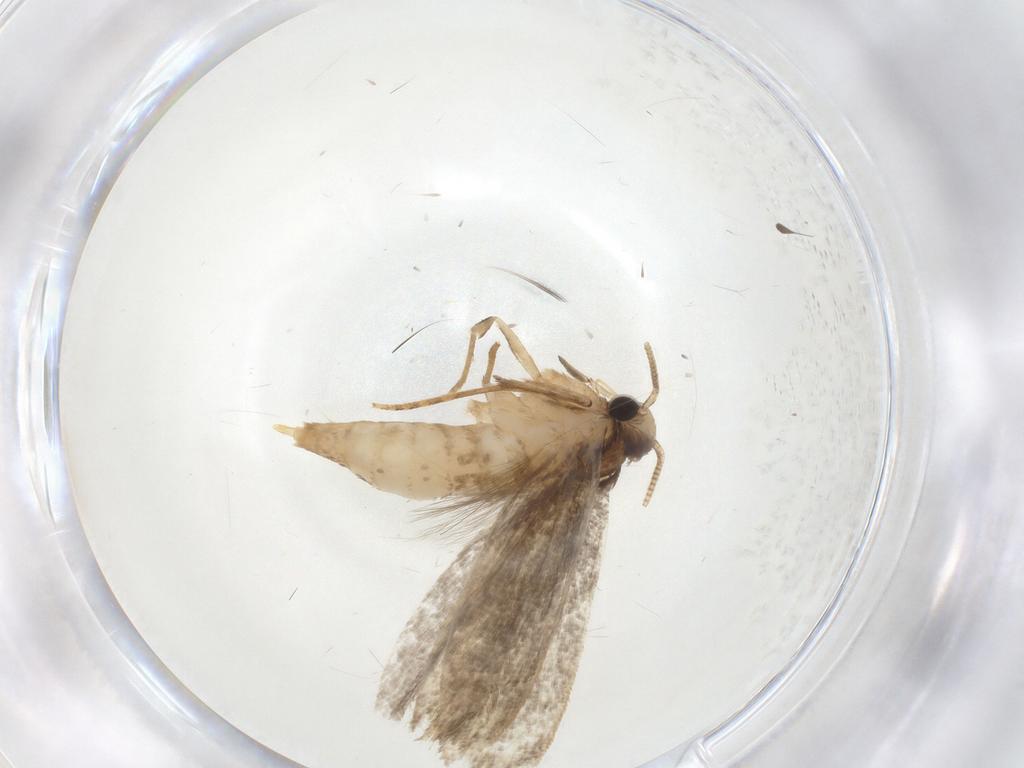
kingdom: Animalia
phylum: Arthropoda
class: Insecta
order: Lepidoptera
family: Tineidae
